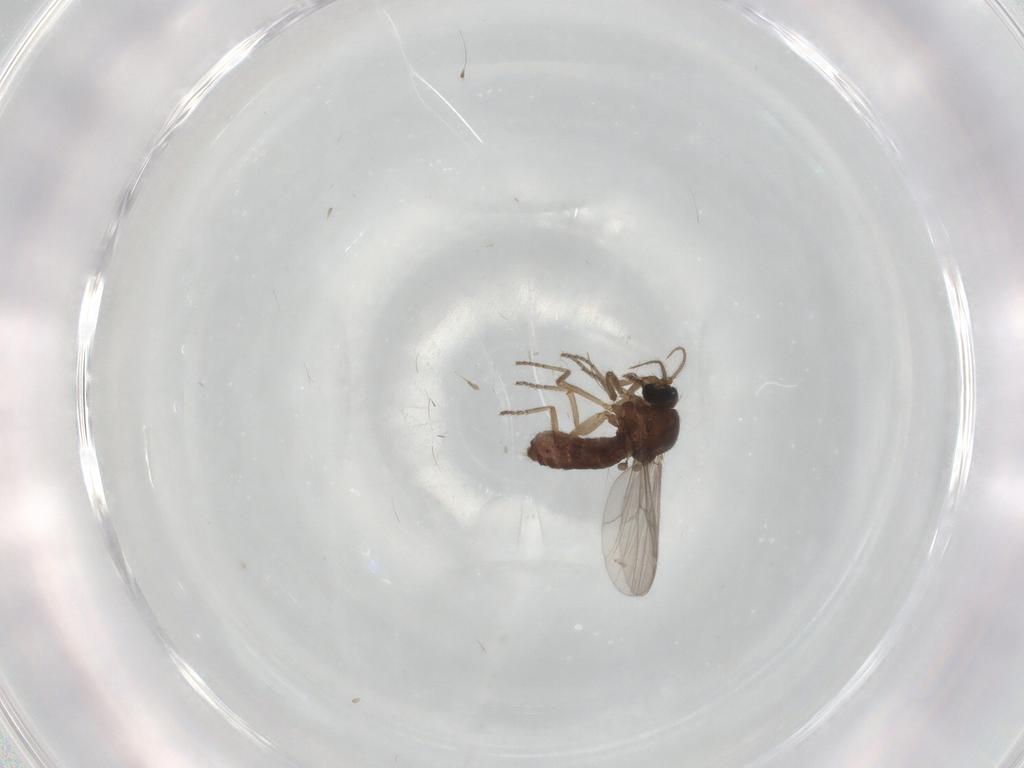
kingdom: Animalia
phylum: Arthropoda
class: Insecta
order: Diptera
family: Ceratopogonidae
